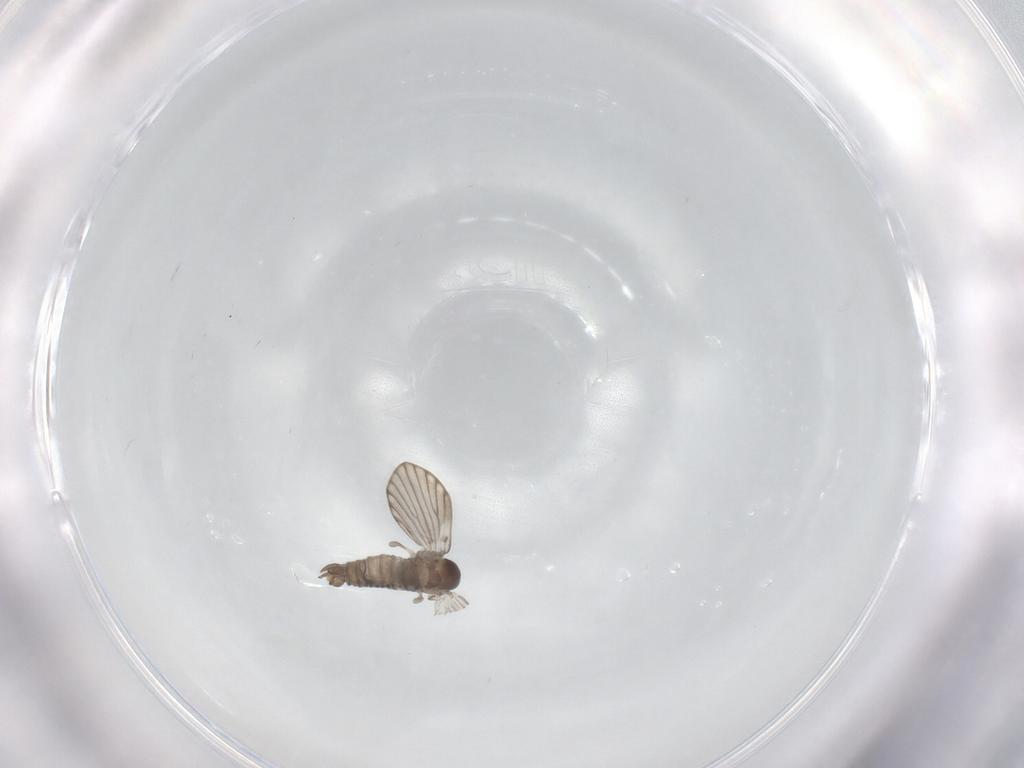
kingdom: Animalia
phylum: Arthropoda
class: Insecta
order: Diptera
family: Psychodidae
